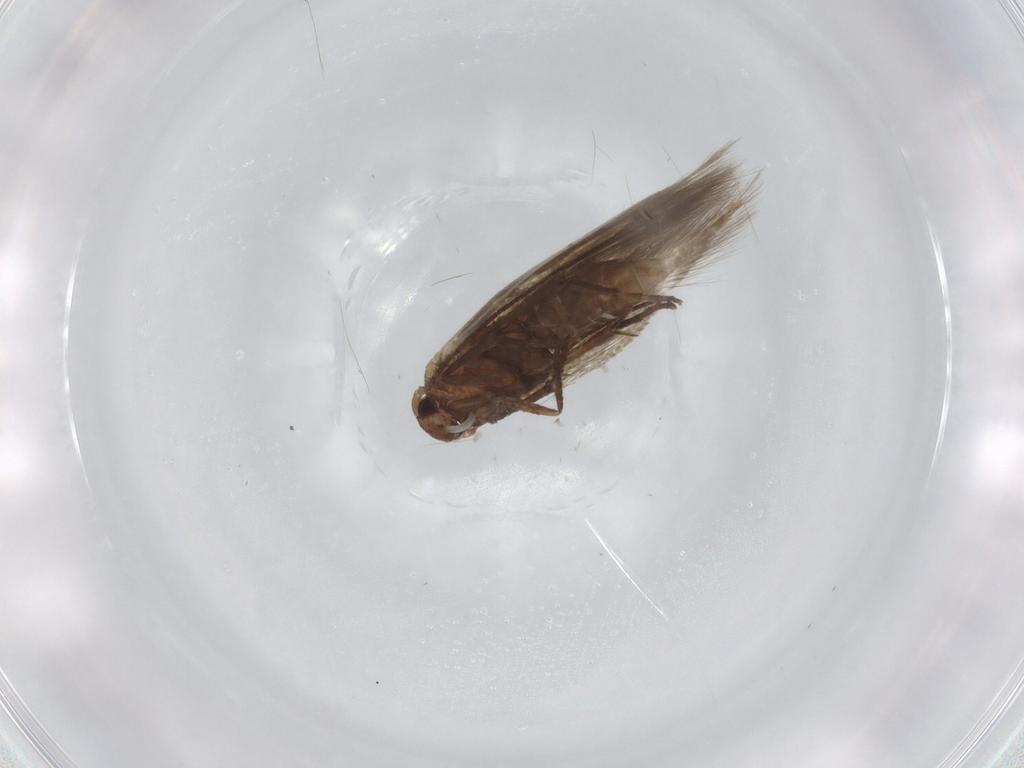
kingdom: Animalia
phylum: Arthropoda
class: Insecta
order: Lepidoptera
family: Bucculatricidae
